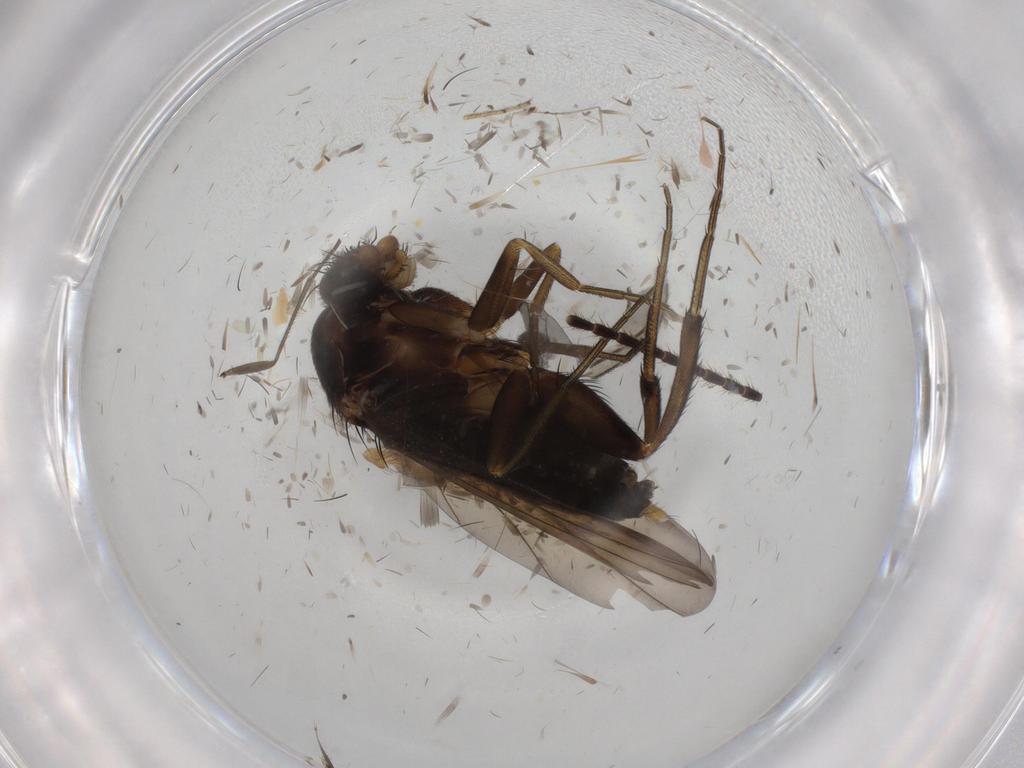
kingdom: Animalia
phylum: Arthropoda
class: Insecta
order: Diptera
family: Phoridae
